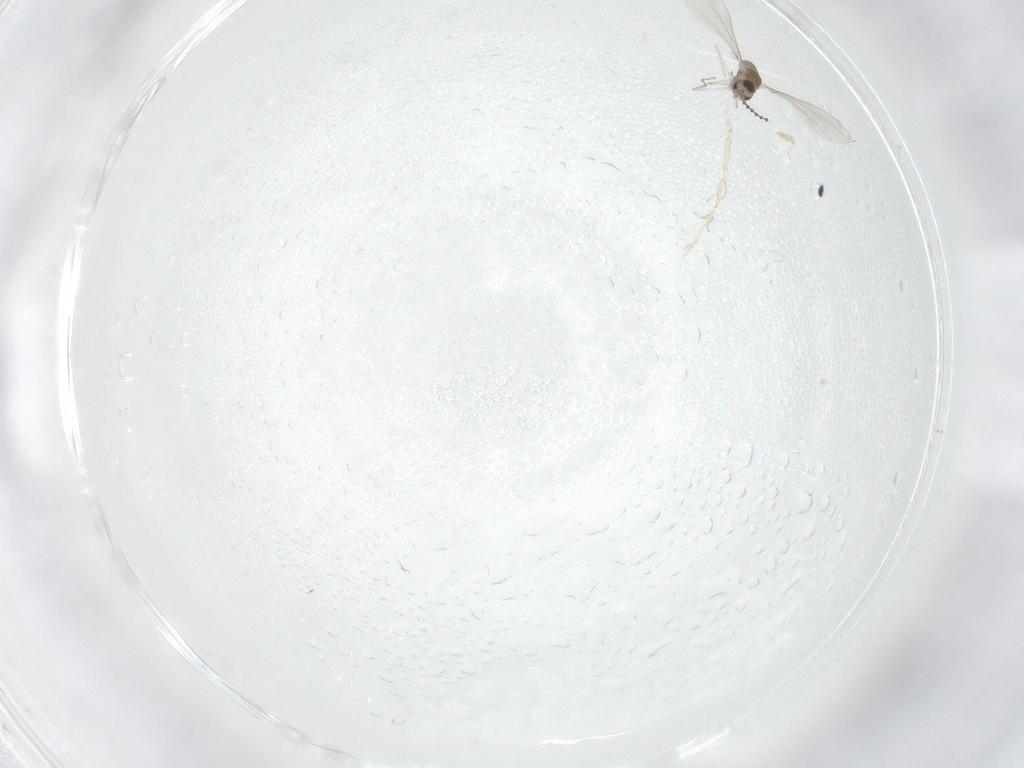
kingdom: Animalia
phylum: Arthropoda
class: Insecta
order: Diptera
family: Cecidomyiidae
